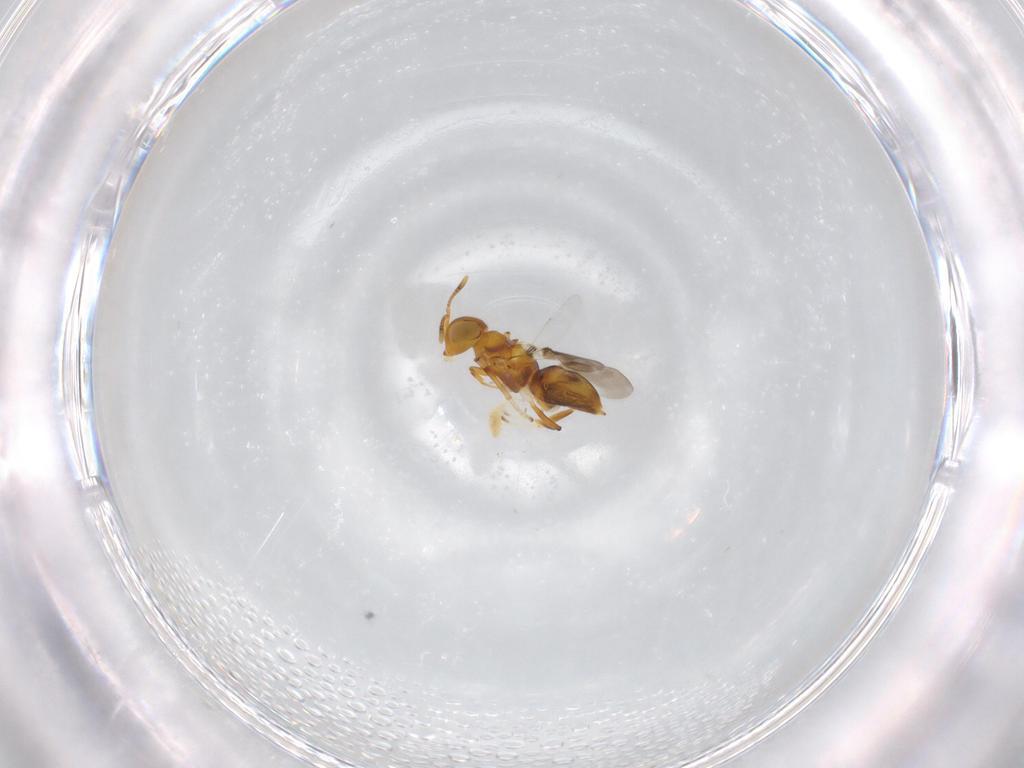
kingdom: Animalia
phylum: Arthropoda
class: Insecta
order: Hymenoptera
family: Encyrtidae
